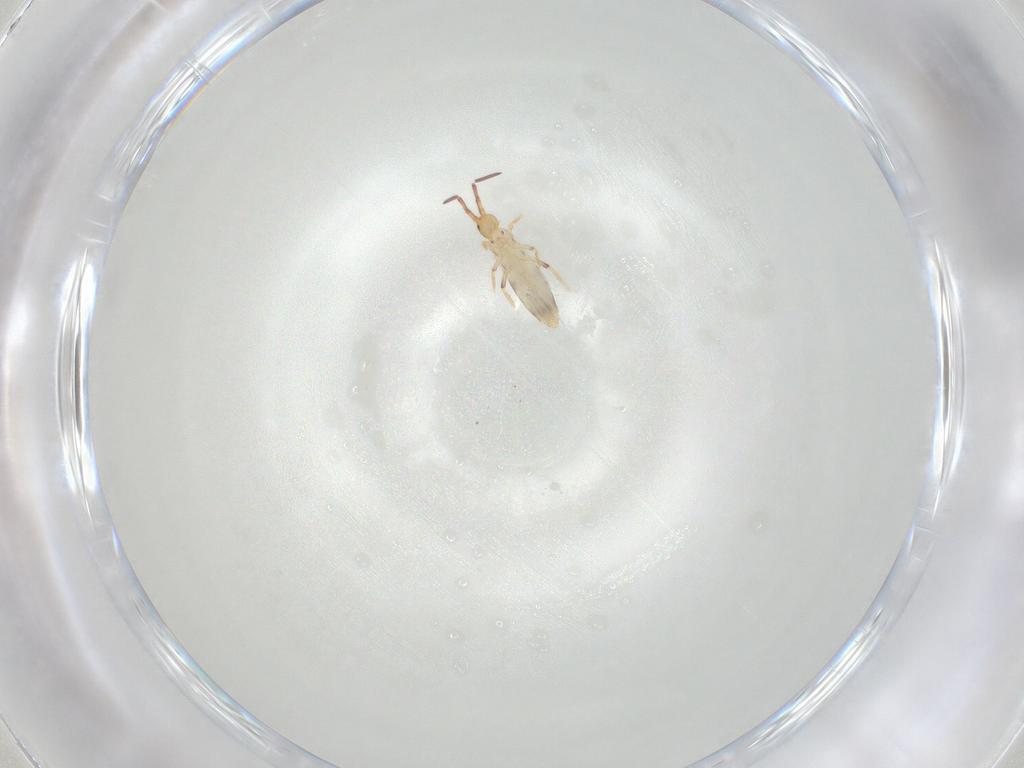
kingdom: Animalia
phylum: Arthropoda
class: Collembola
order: Poduromorpha
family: Hypogastruridae
